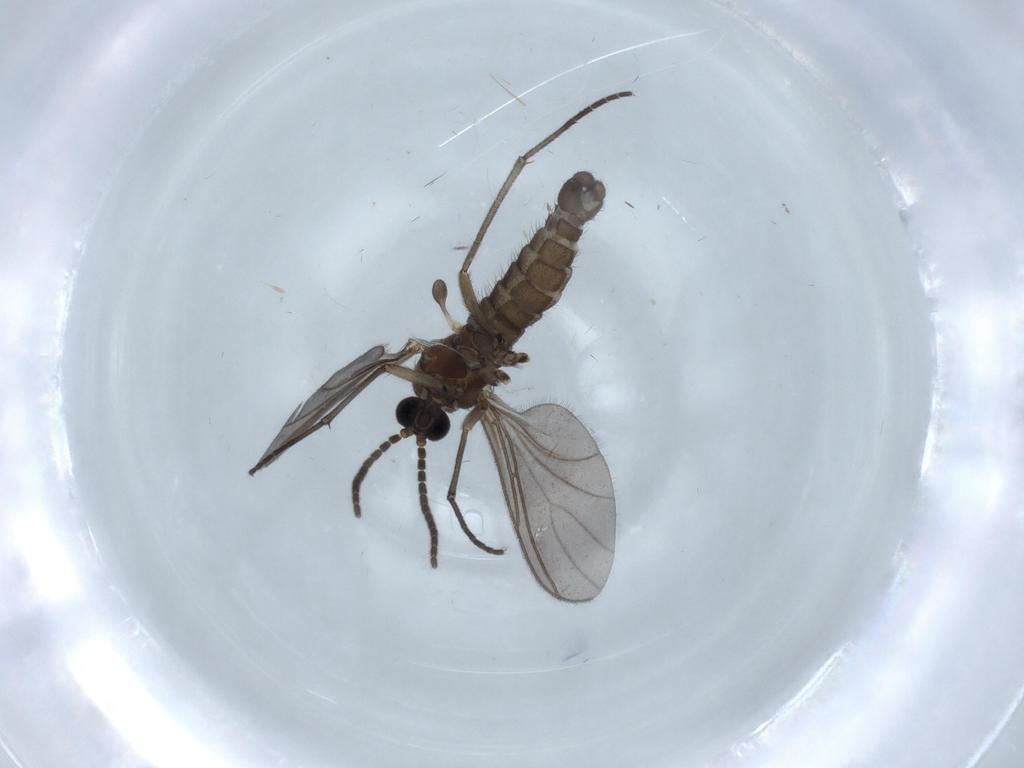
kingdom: Animalia
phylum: Arthropoda
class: Insecta
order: Diptera
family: Sciaridae
